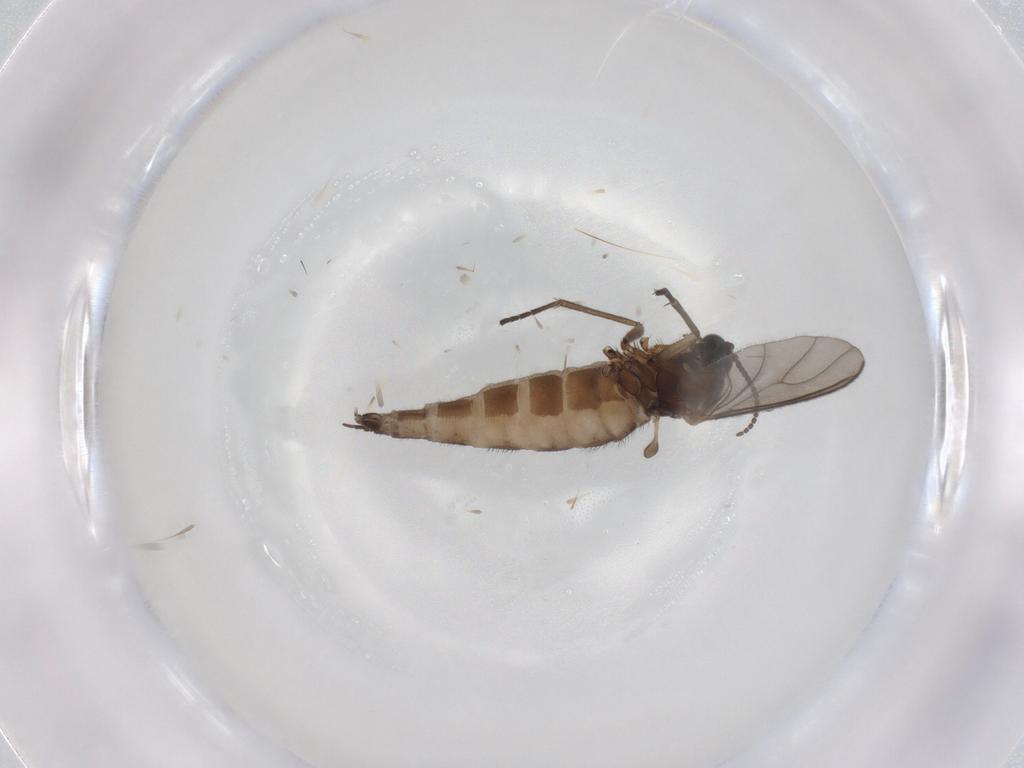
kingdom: Animalia
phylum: Arthropoda
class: Insecta
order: Diptera
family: Sciaridae
